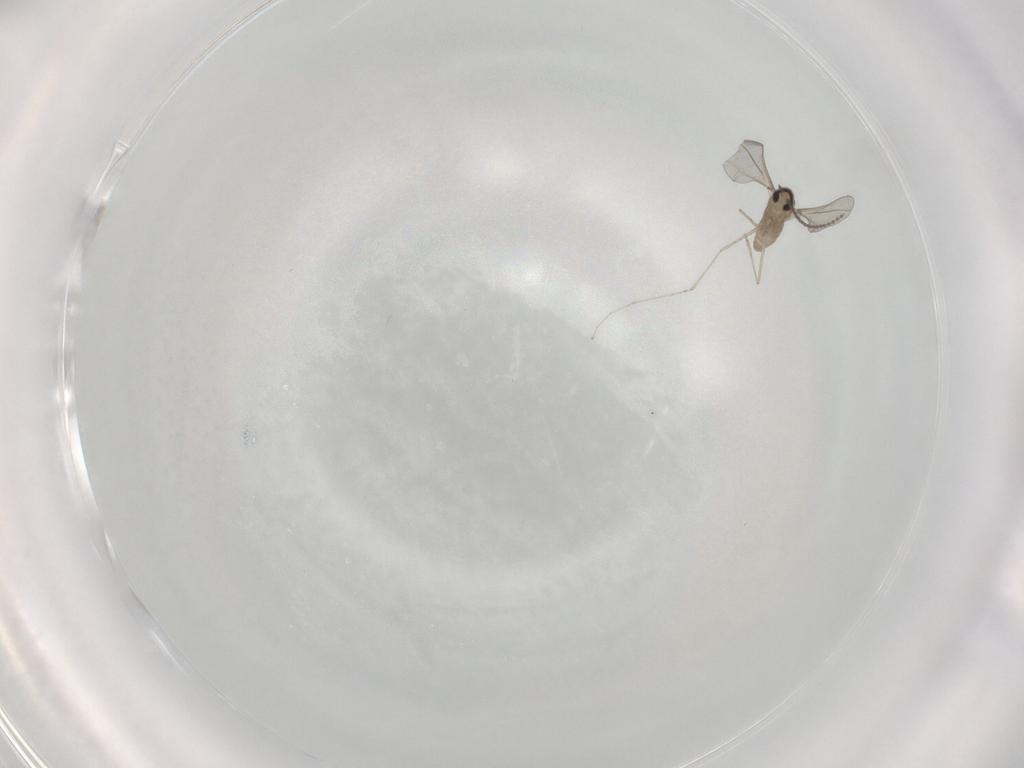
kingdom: Animalia
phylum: Arthropoda
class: Insecta
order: Diptera
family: Cecidomyiidae
